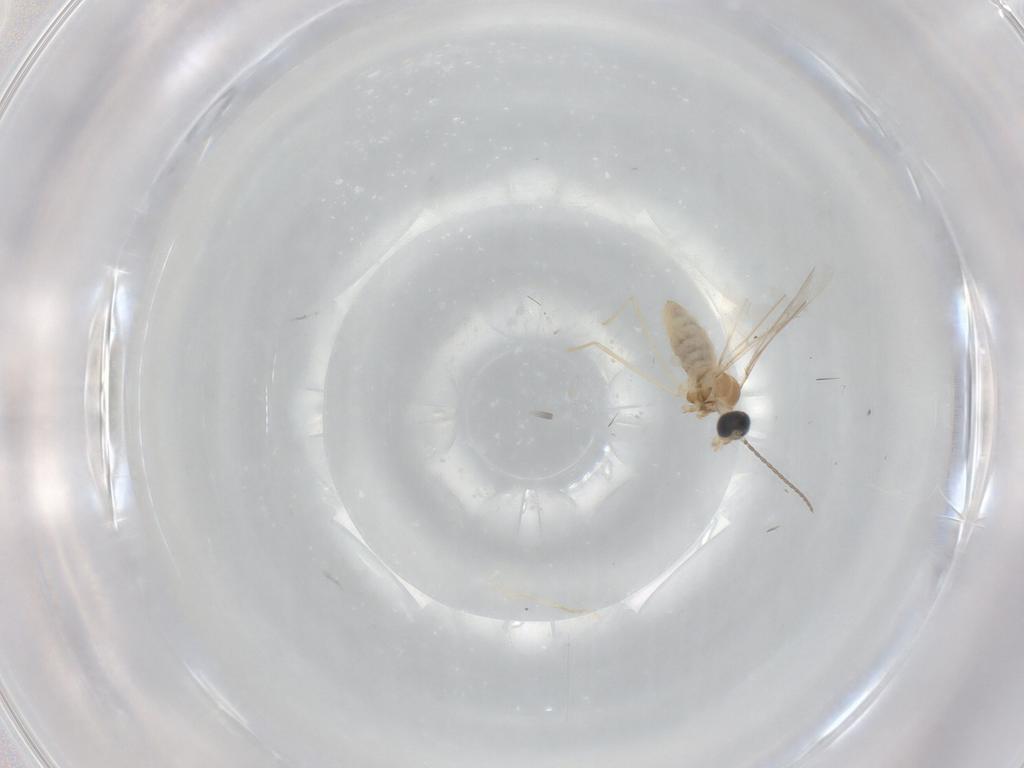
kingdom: Animalia
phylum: Arthropoda
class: Insecta
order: Diptera
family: Cecidomyiidae
